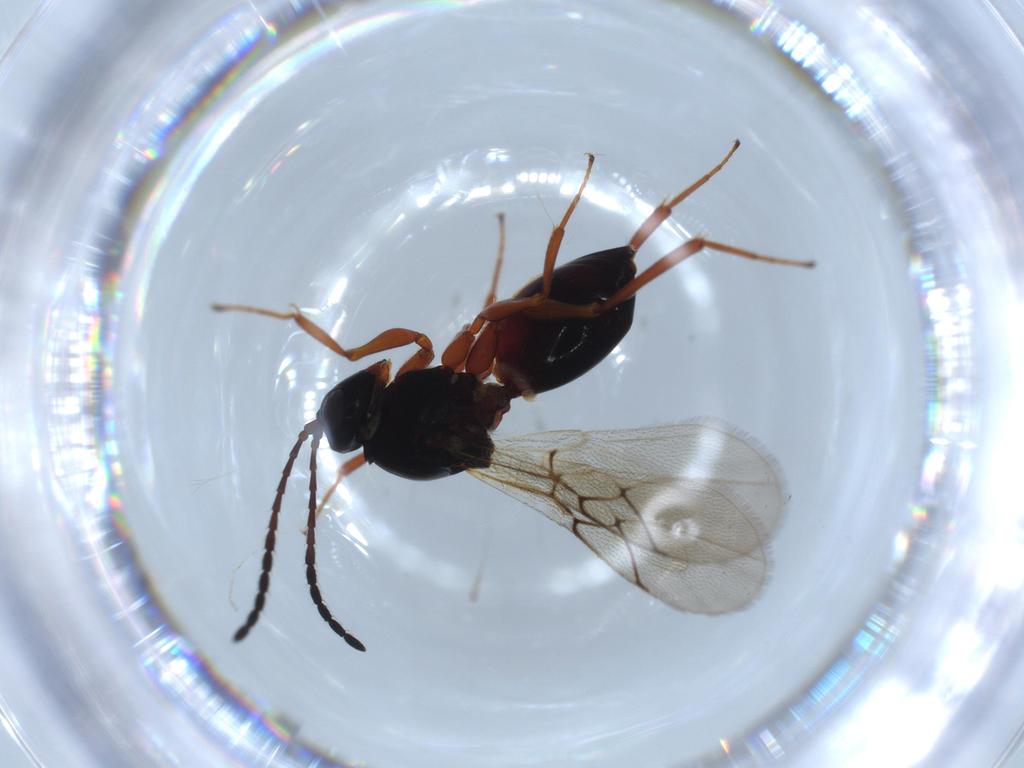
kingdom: Animalia
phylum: Arthropoda
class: Insecta
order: Hymenoptera
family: Figitidae
